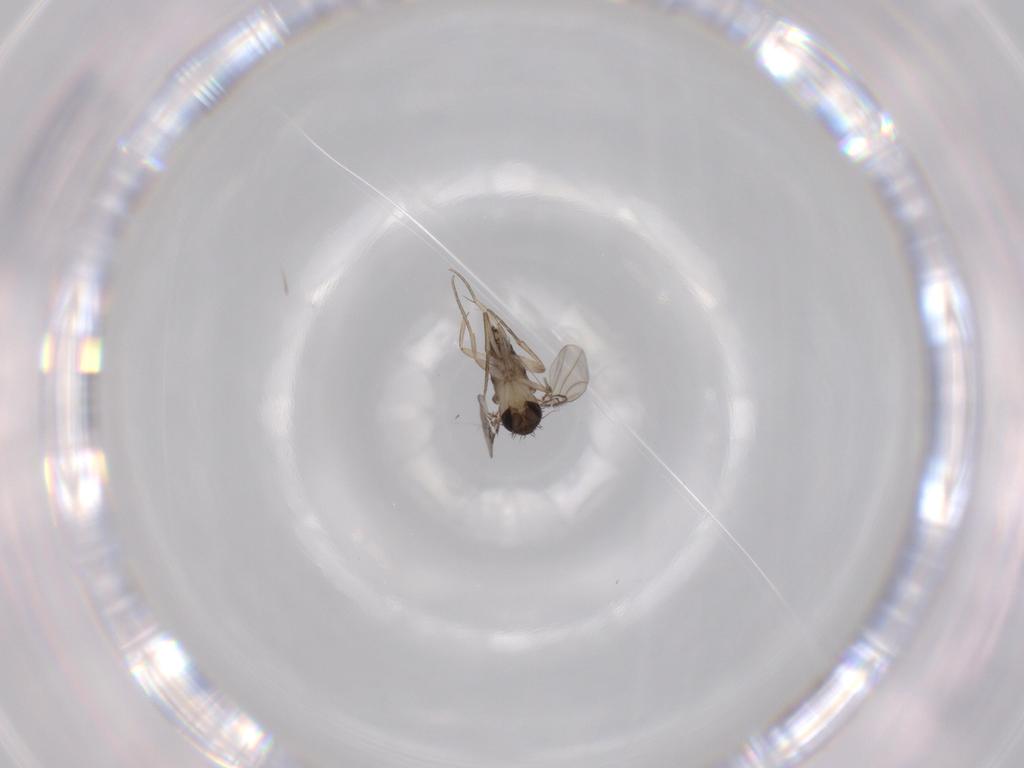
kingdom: Animalia
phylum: Arthropoda
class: Insecta
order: Diptera
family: Phoridae
